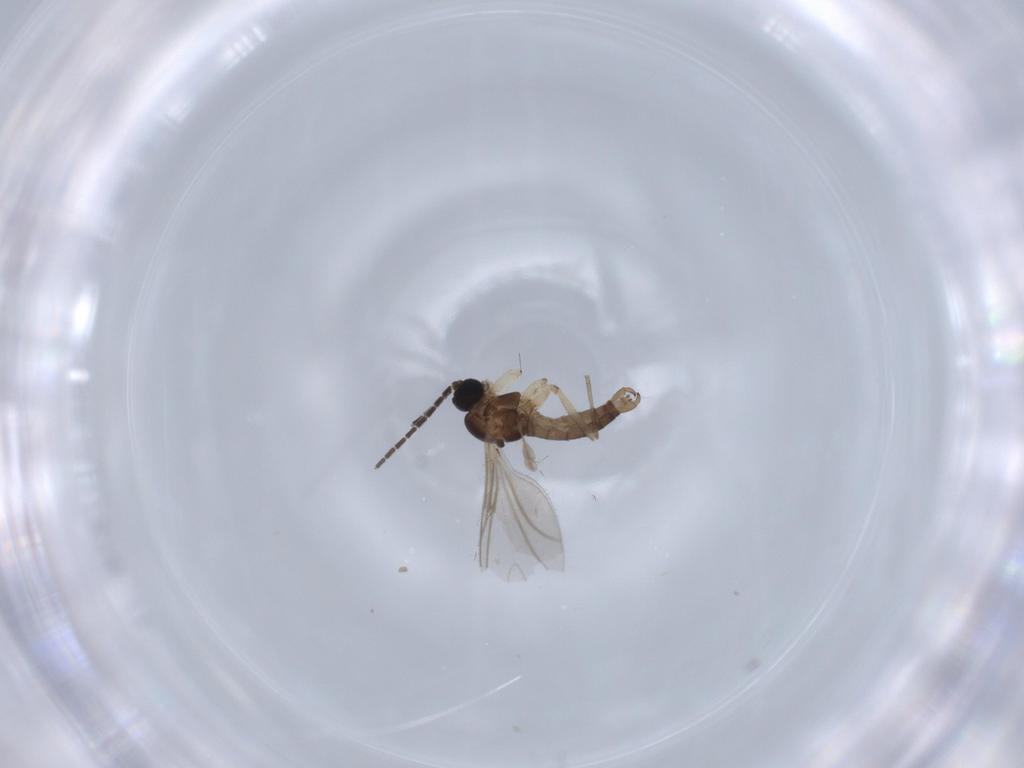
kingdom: Animalia
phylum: Arthropoda
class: Insecta
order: Diptera
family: Sciaridae
